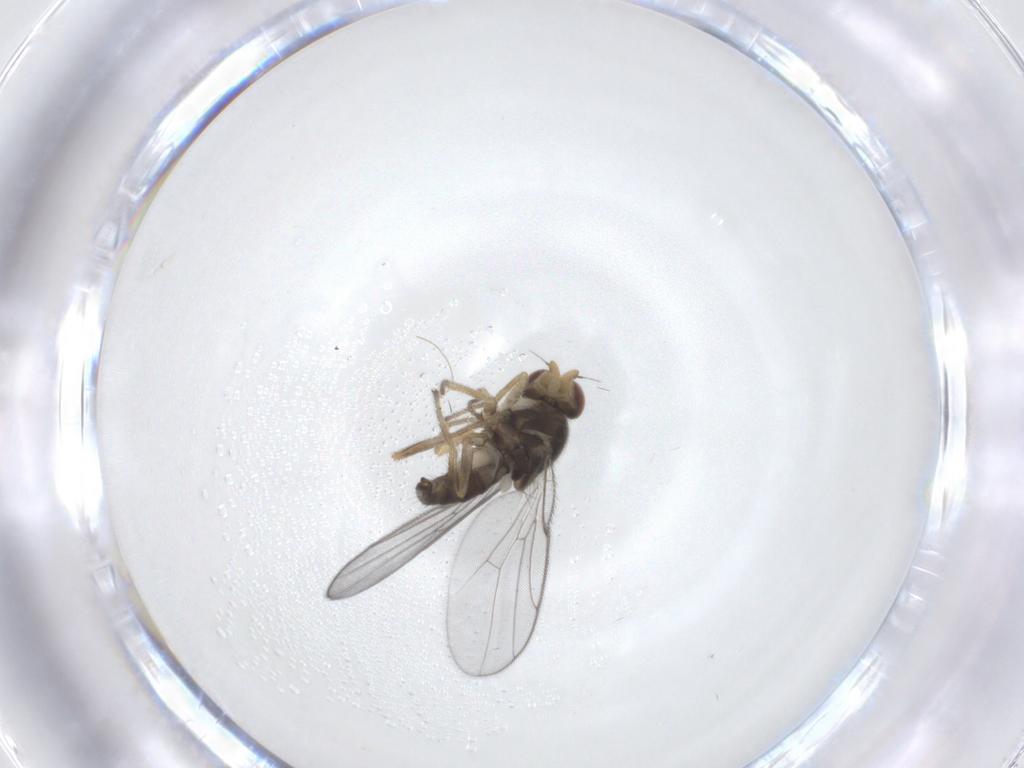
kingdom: Animalia
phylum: Arthropoda
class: Insecta
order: Diptera
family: Chloropidae
